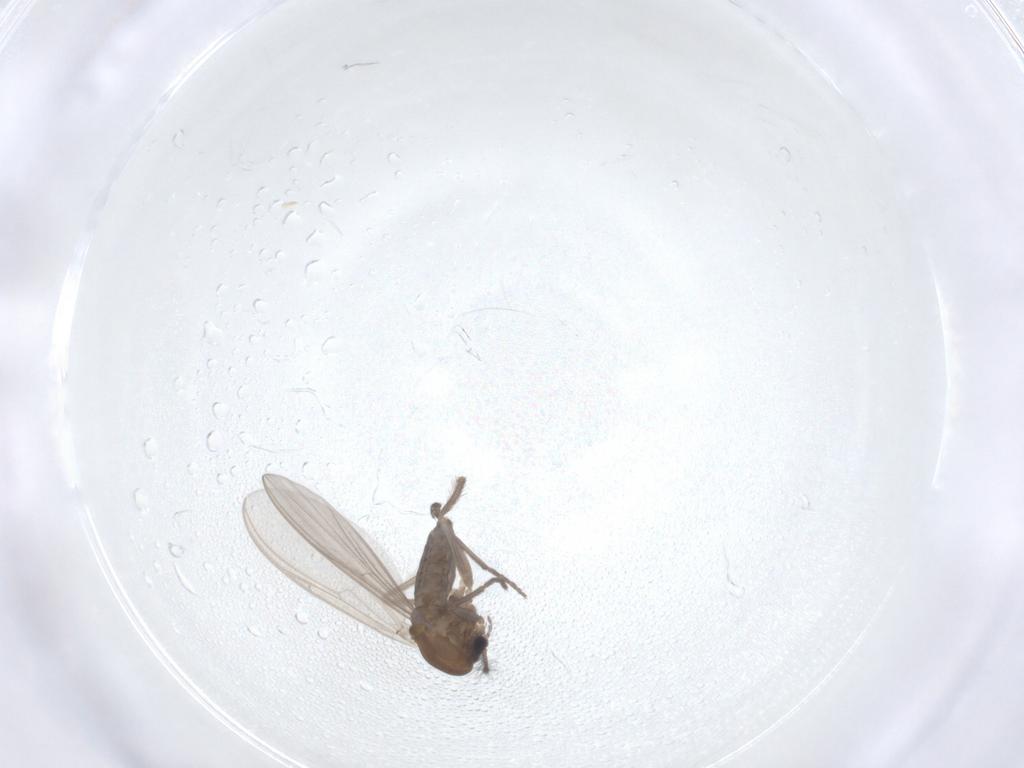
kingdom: Animalia
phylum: Arthropoda
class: Insecta
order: Diptera
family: Chironomidae
